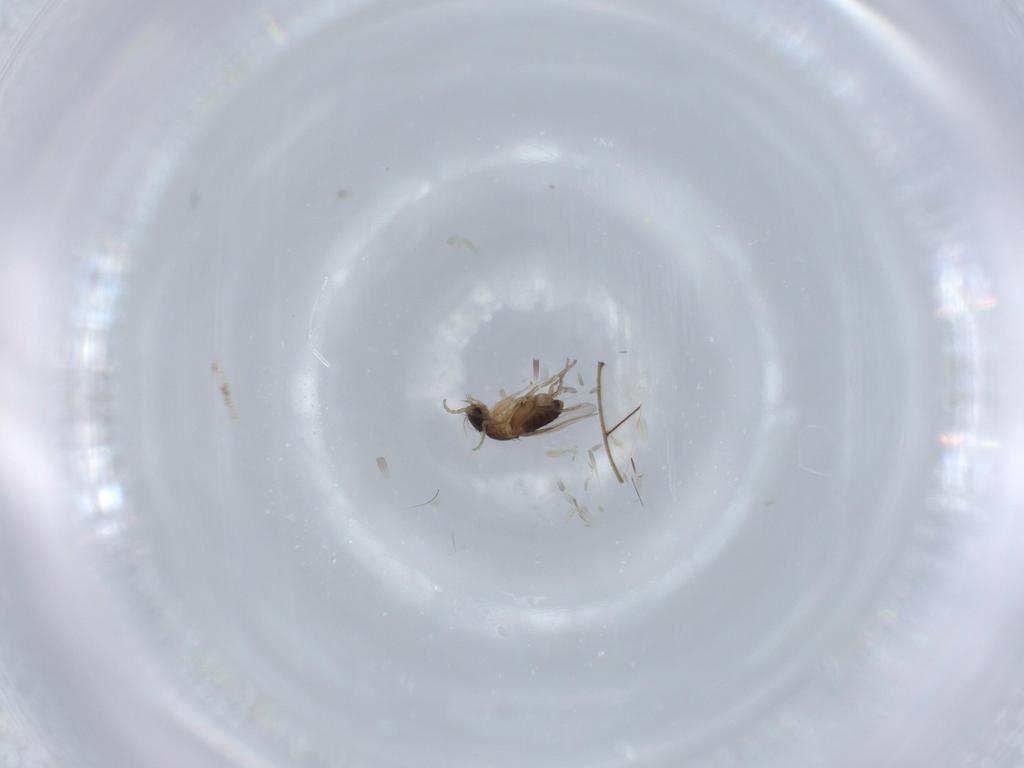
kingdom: Animalia
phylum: Arthropoda
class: Insecta
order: Diptera
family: Phoridae
